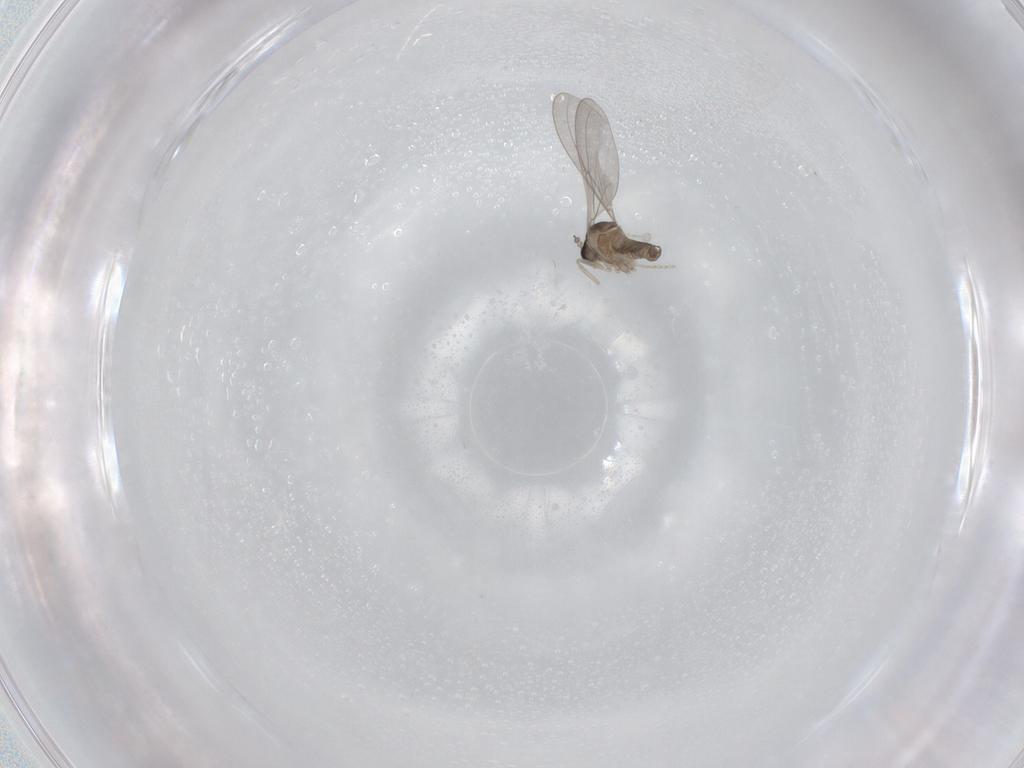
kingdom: Animalia
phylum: Arthropoda
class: Insecta
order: Diptera
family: Cecidomyiidae
